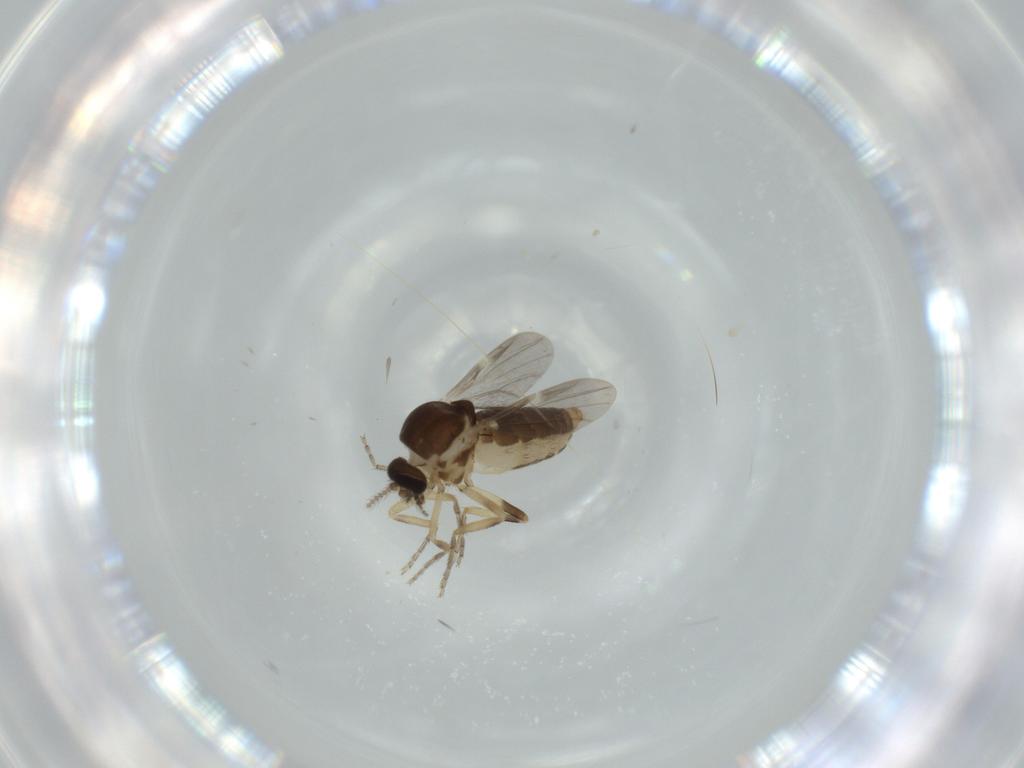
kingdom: Animalia
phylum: Arthropoda
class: Insecta
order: Diptera
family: Ceratopogonidae
